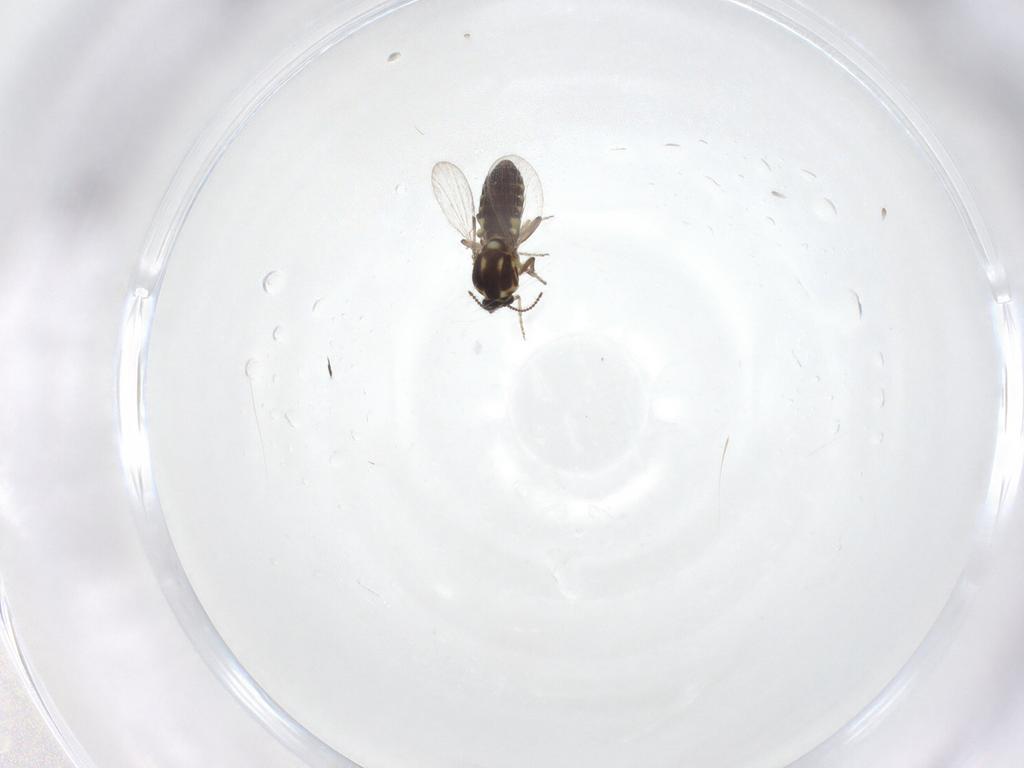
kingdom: Animalia
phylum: Arthropoda
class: Insecta
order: Diptera
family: Ceratopogonidae
